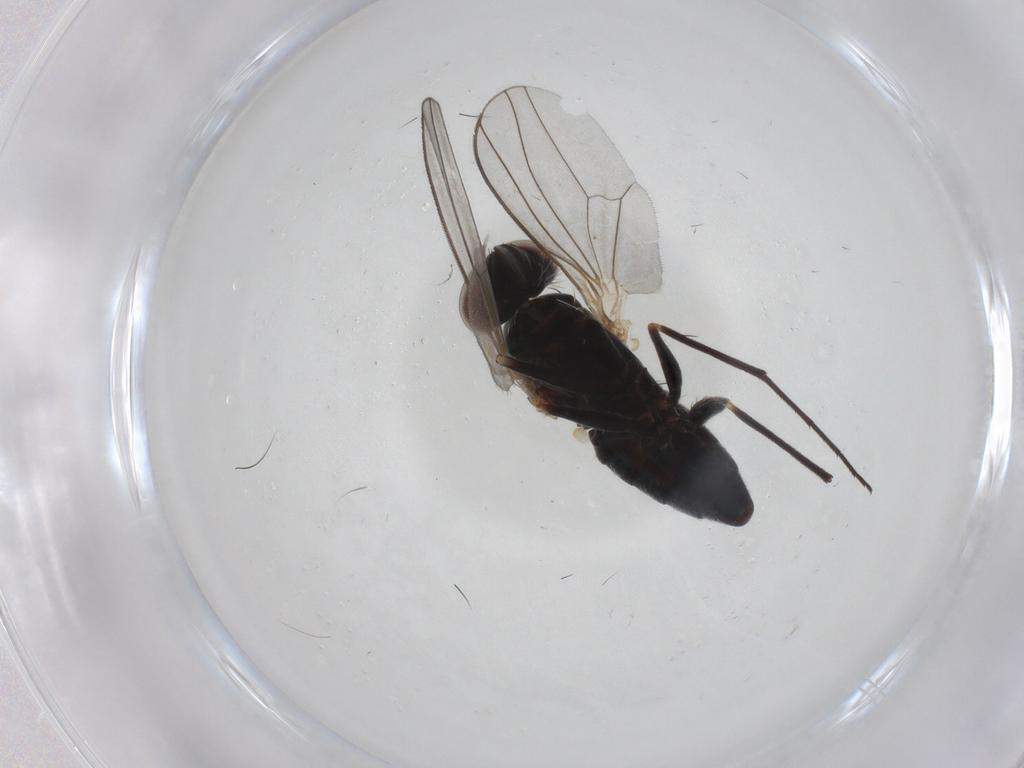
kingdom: Animalia
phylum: Arthropoda
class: Insecta
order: Diptera
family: Dolichopodidae
